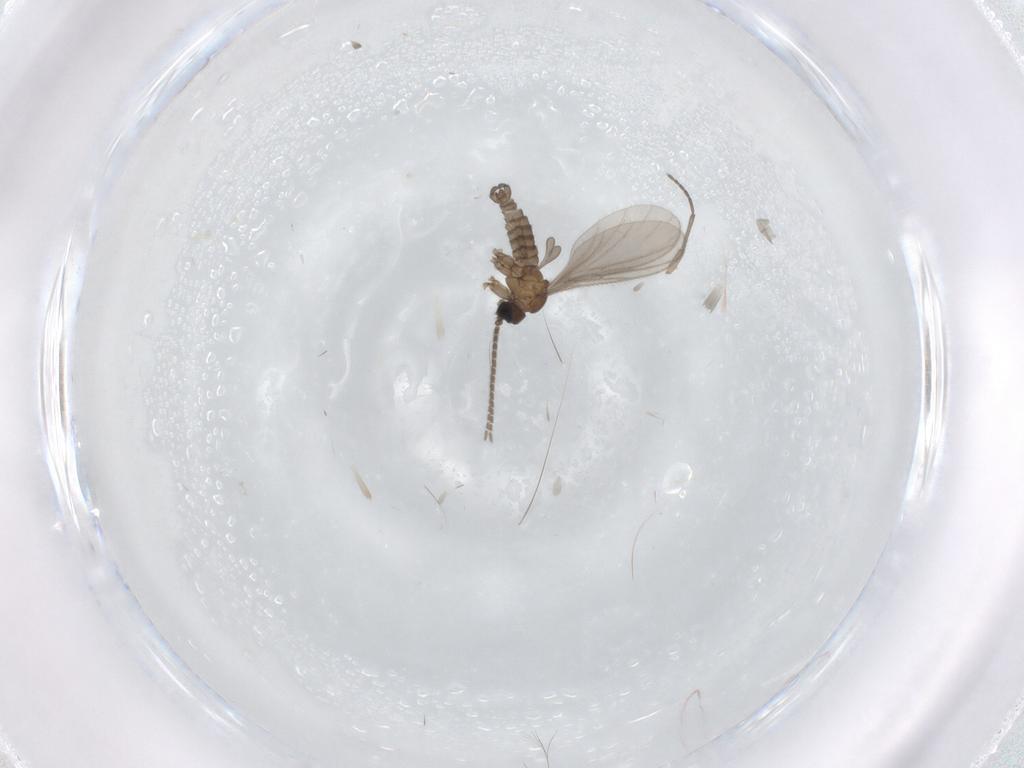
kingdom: Animalia
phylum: Arthropoda
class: Insecta
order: Diptera
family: Sciaridae
